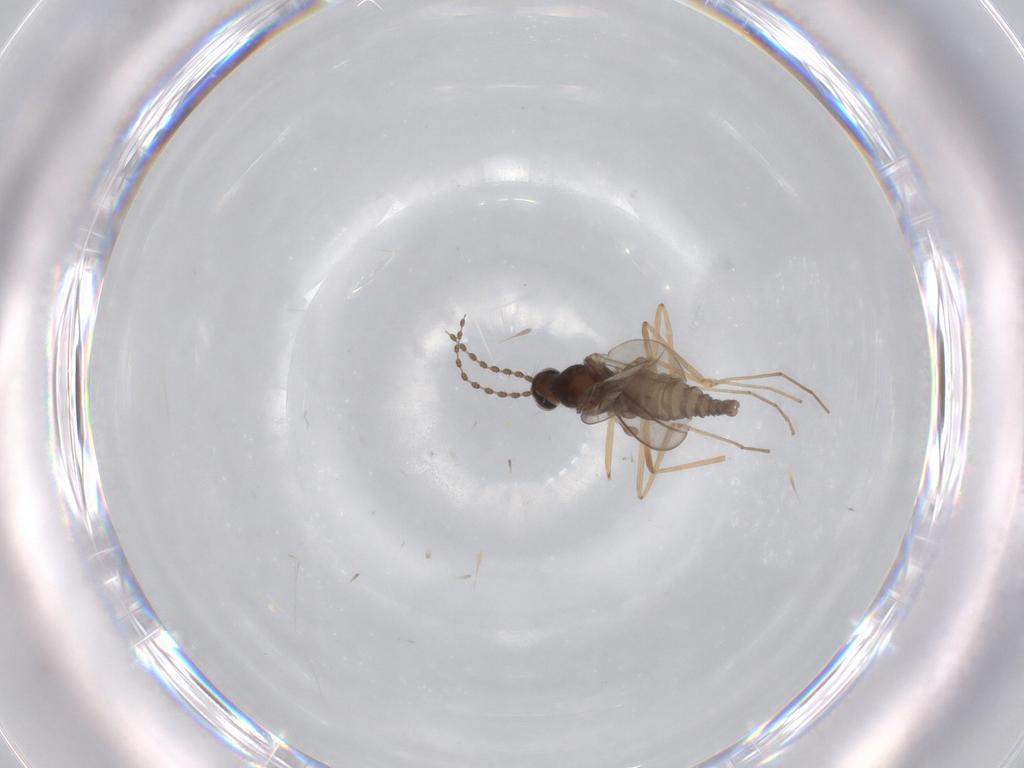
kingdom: Animalia
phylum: Arthropoda
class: Insecta
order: Diptera
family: Cecidomyiidae
